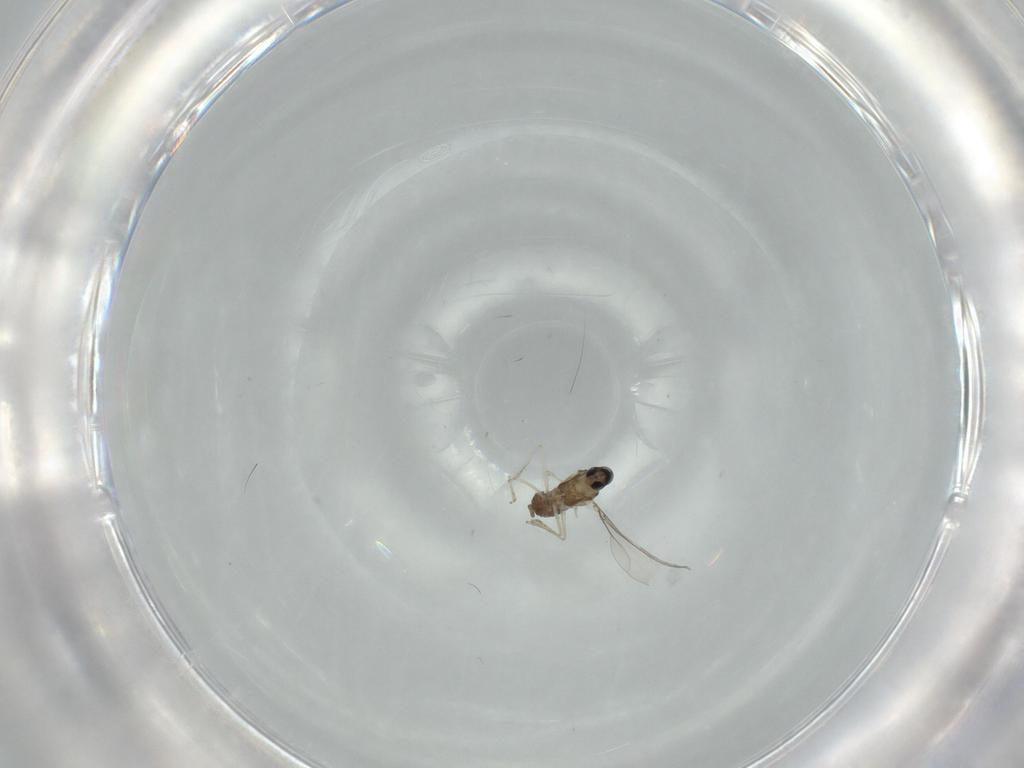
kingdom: Animalia
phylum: Arthropoda
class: Insecta
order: Diptera
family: Cecidomyiidae
